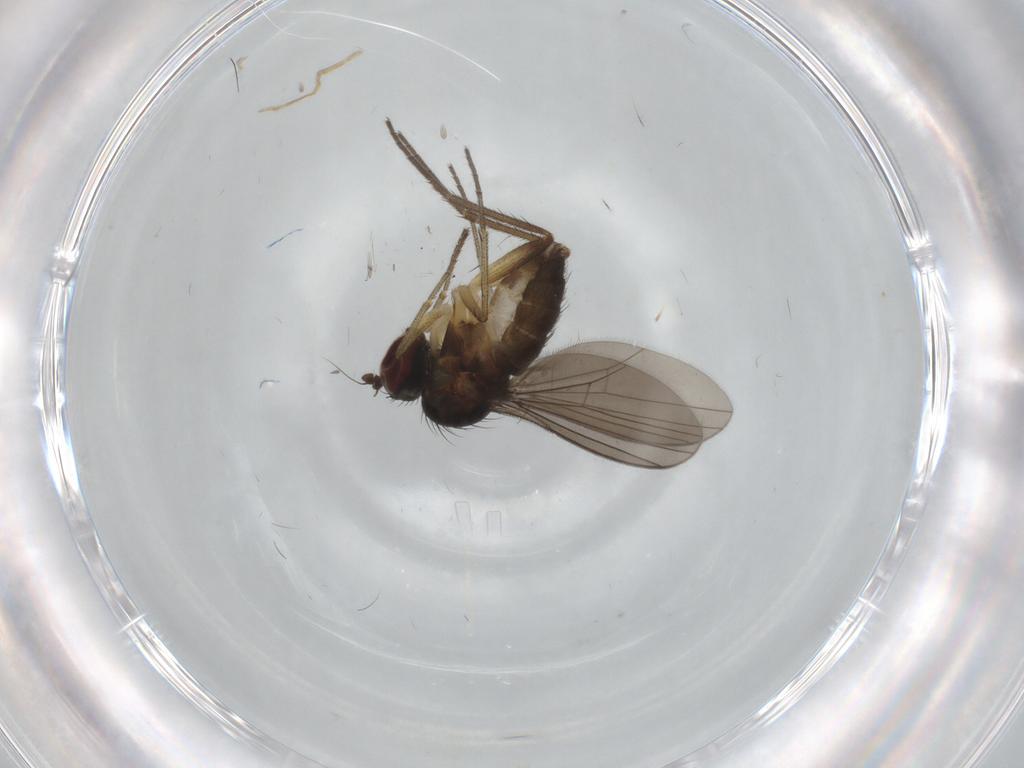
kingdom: Animalia
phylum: Arthropoda
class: Insecta
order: Diptera
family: Dolichopodidae
